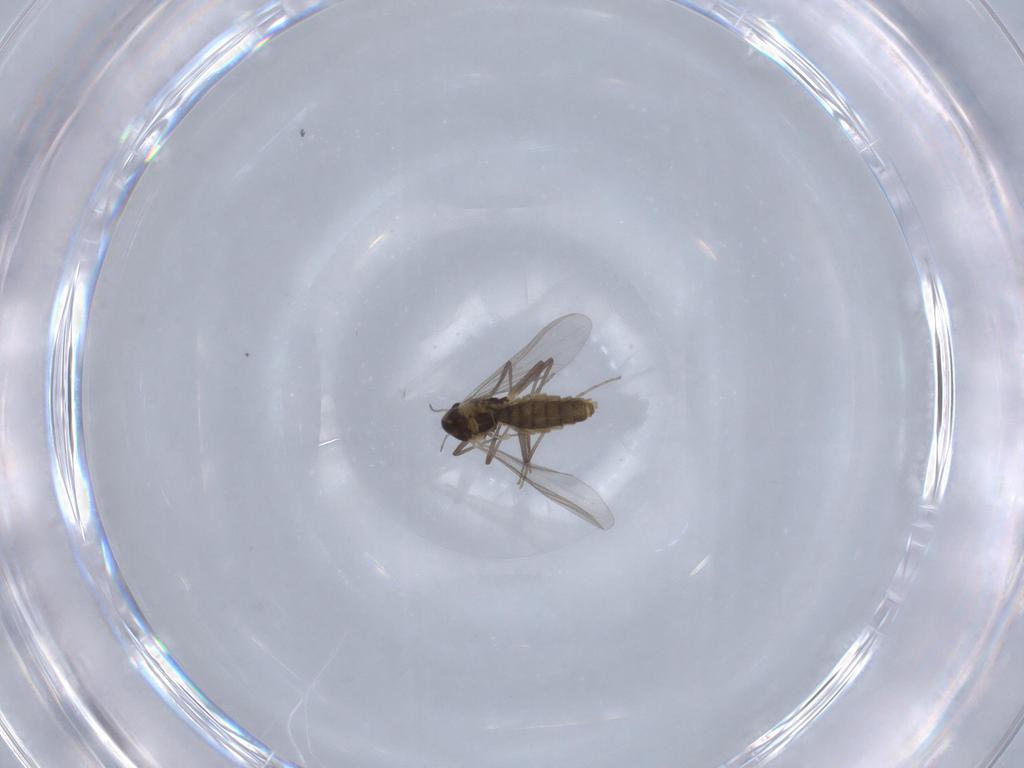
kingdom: Animalia
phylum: Arthropoda
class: Insecta
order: Diptera
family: Chironomidae
